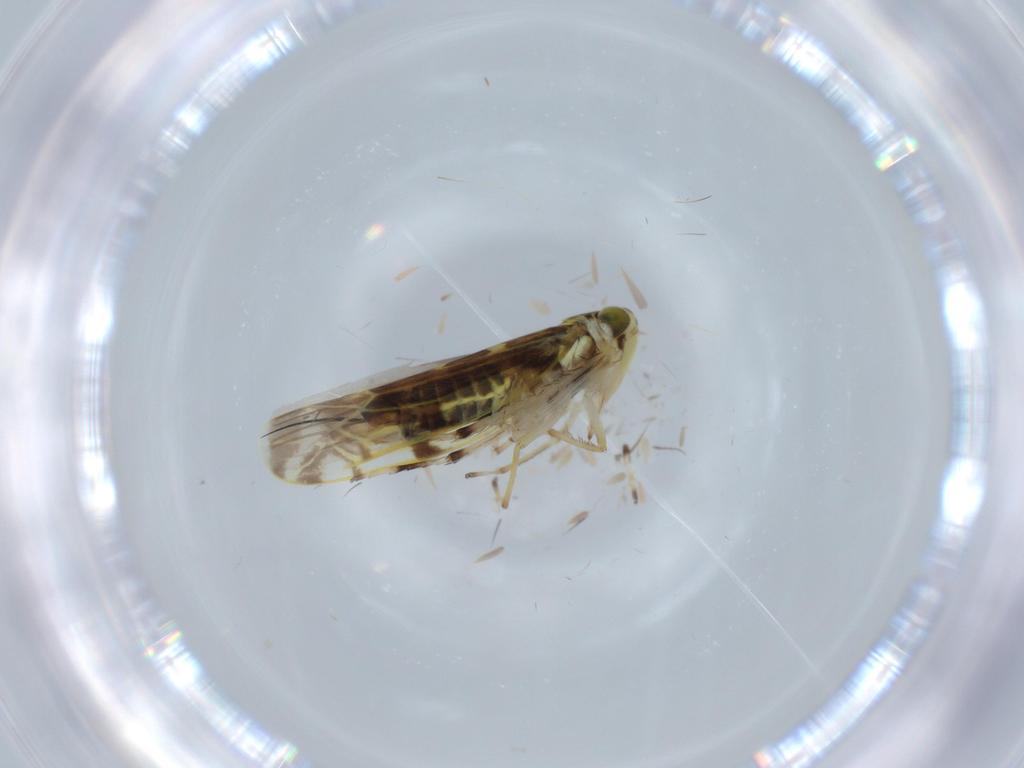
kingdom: Animalia
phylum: Arthropoda
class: Insecta
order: Hemiptera
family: Cicadellidae
